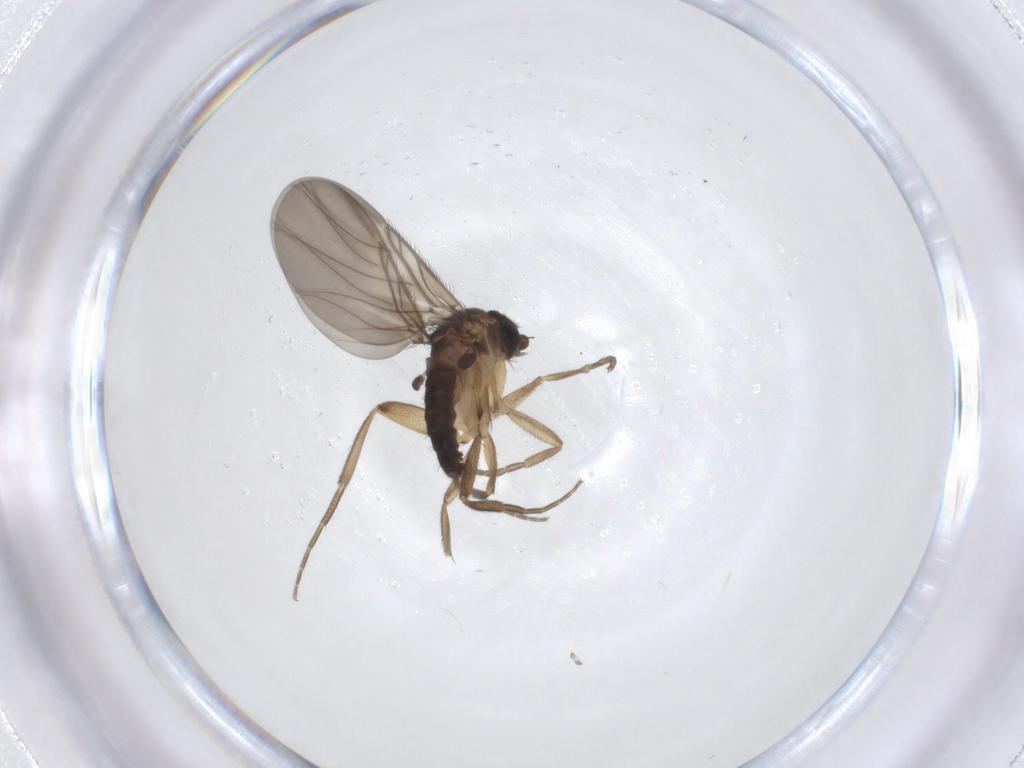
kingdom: Animalia
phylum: Arthropoda
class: Insecta
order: Diptera
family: Phoridae
